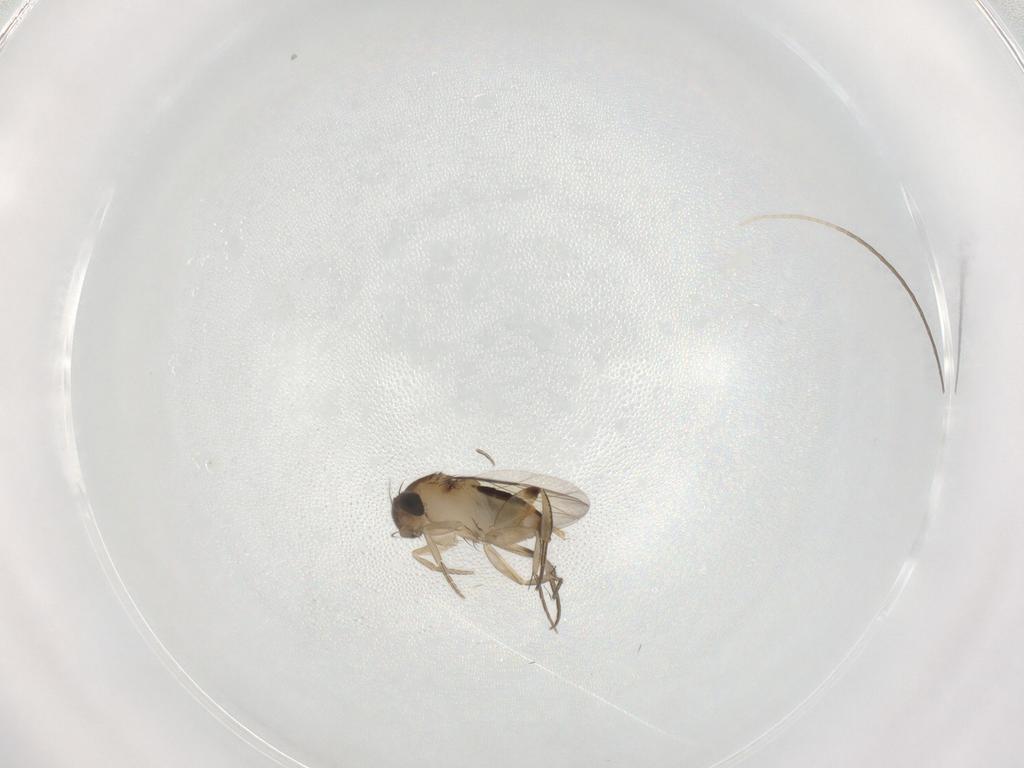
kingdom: Animalia
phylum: Arthropoda
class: Insecta
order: Diptera
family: Phoridae
